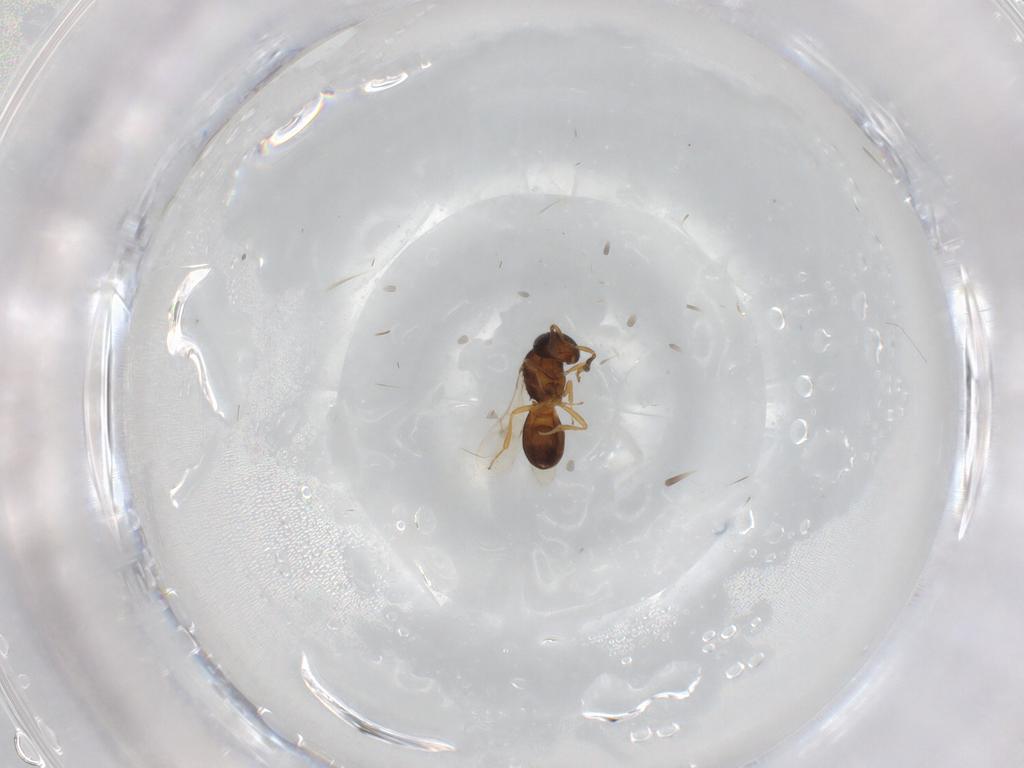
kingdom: Animalia
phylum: Arthropoda
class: Insecta
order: Hymenoptera
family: Scelionidae
